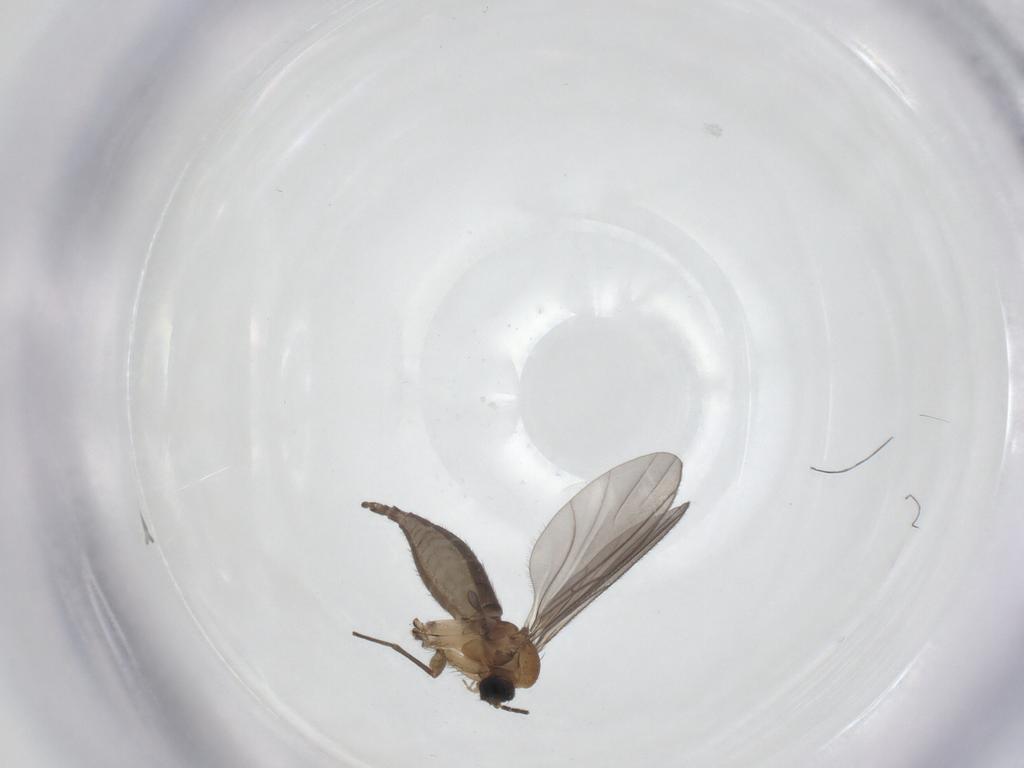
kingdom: Animalia
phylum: Arthropoda
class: Insecta
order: Diptera
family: Sciaridae
